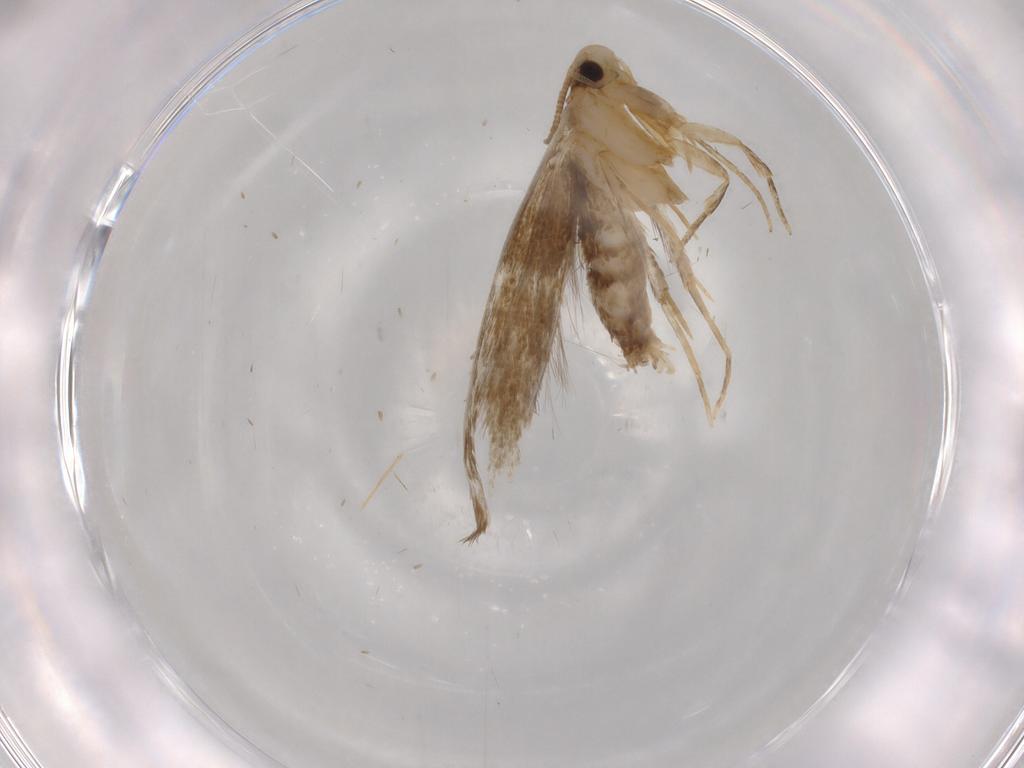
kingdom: Animalia
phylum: Arthropoda
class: Insecta
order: Lepidoptera
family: Tineidae
